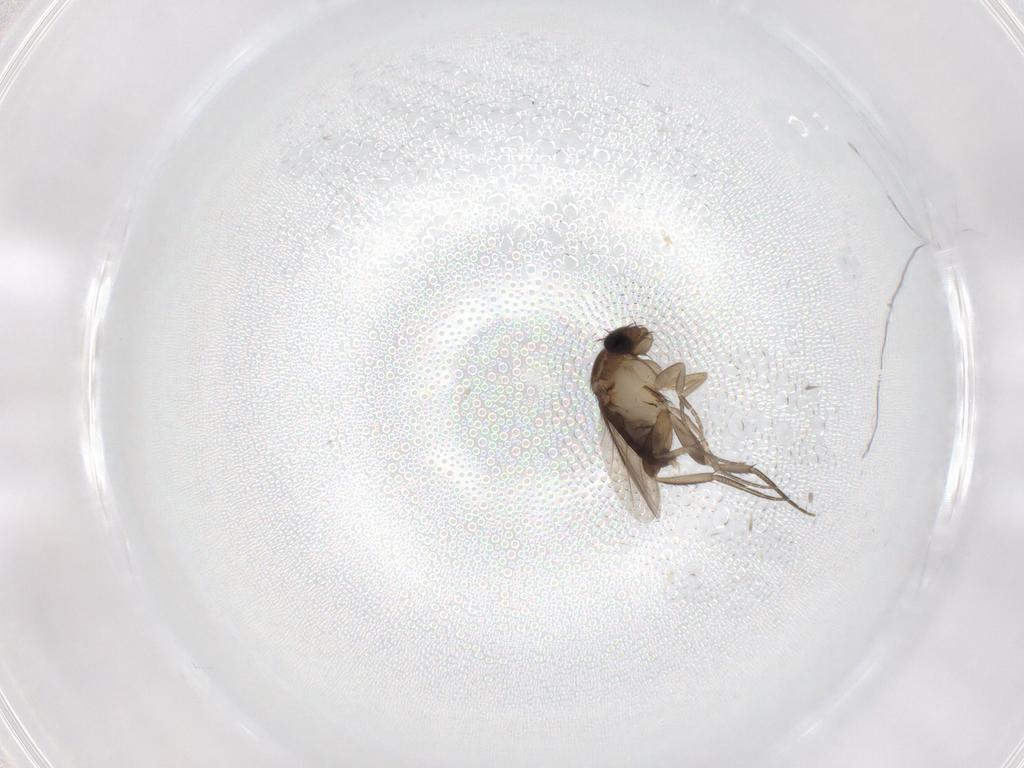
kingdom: Animalia
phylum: Arthropoda
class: Insecta
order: Diptera
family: Phoridae
